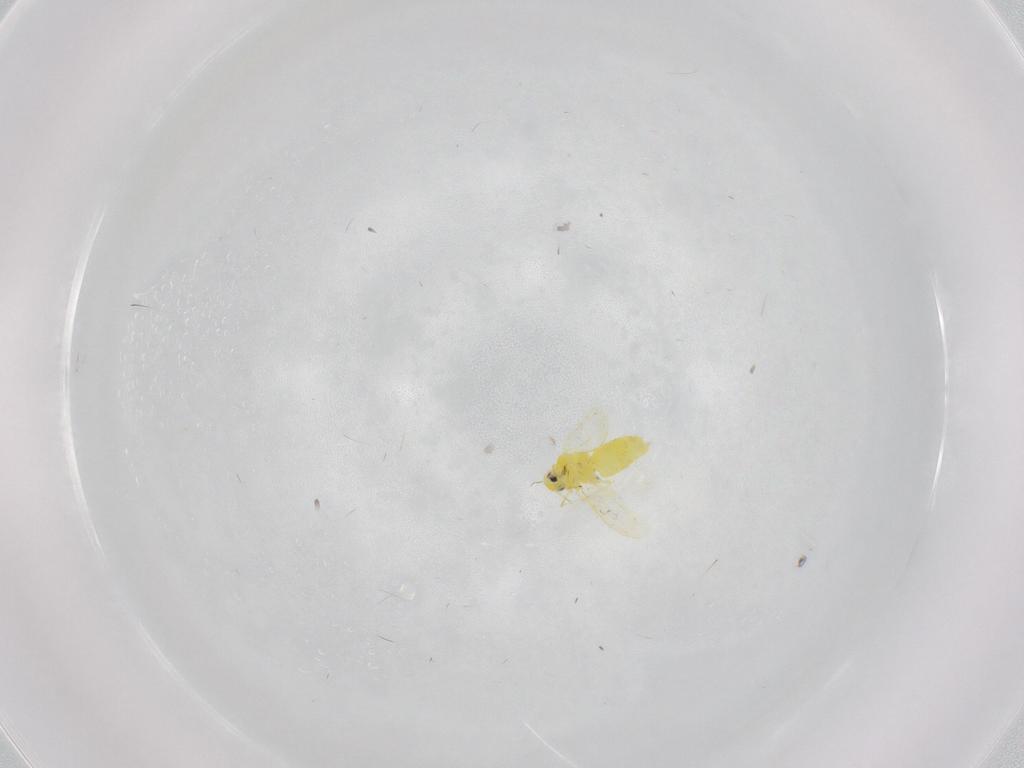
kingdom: Animalia
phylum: Arthropoda
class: Insecta
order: Hemiptera
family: Aleyrodidae
